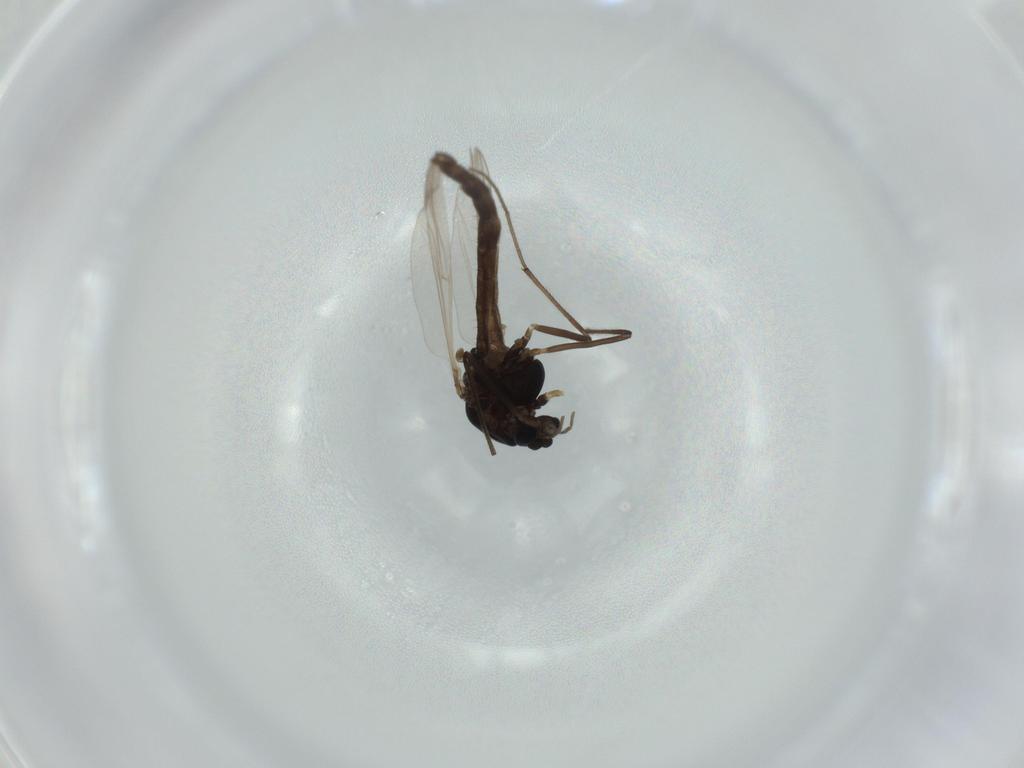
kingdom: Animalia
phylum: Arthropoda
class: Insecta
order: Diptera
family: Chironomidae
